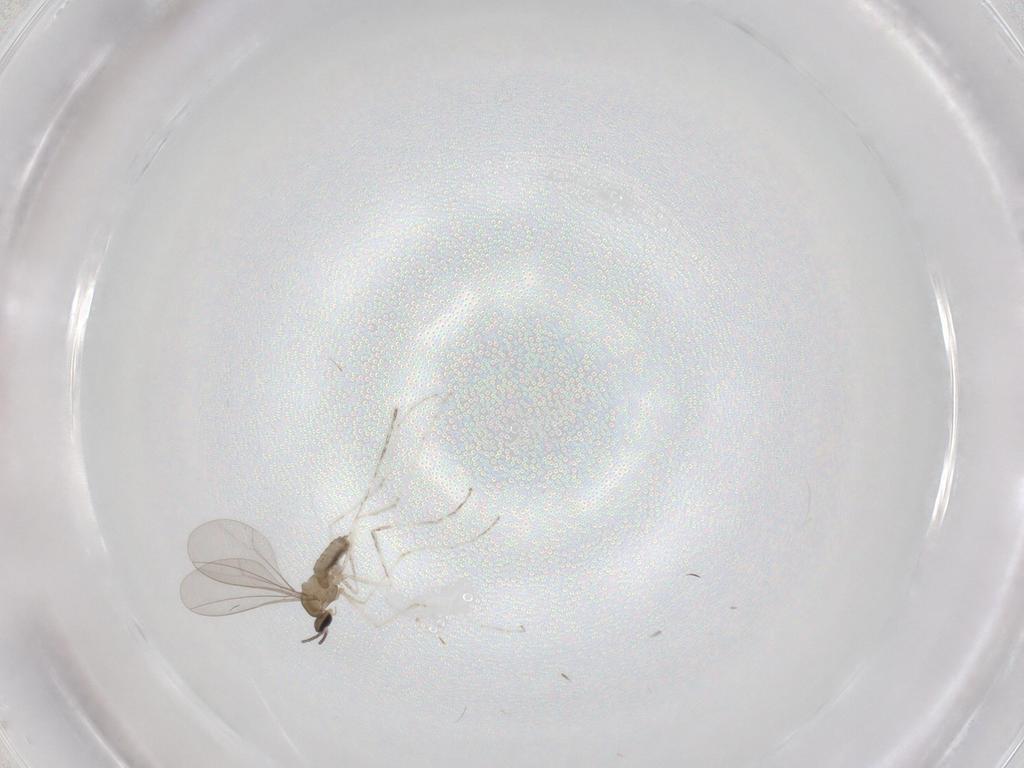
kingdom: Animalia
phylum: Arthropoda
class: Insecta
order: Diptera
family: Cecidomyiidae
